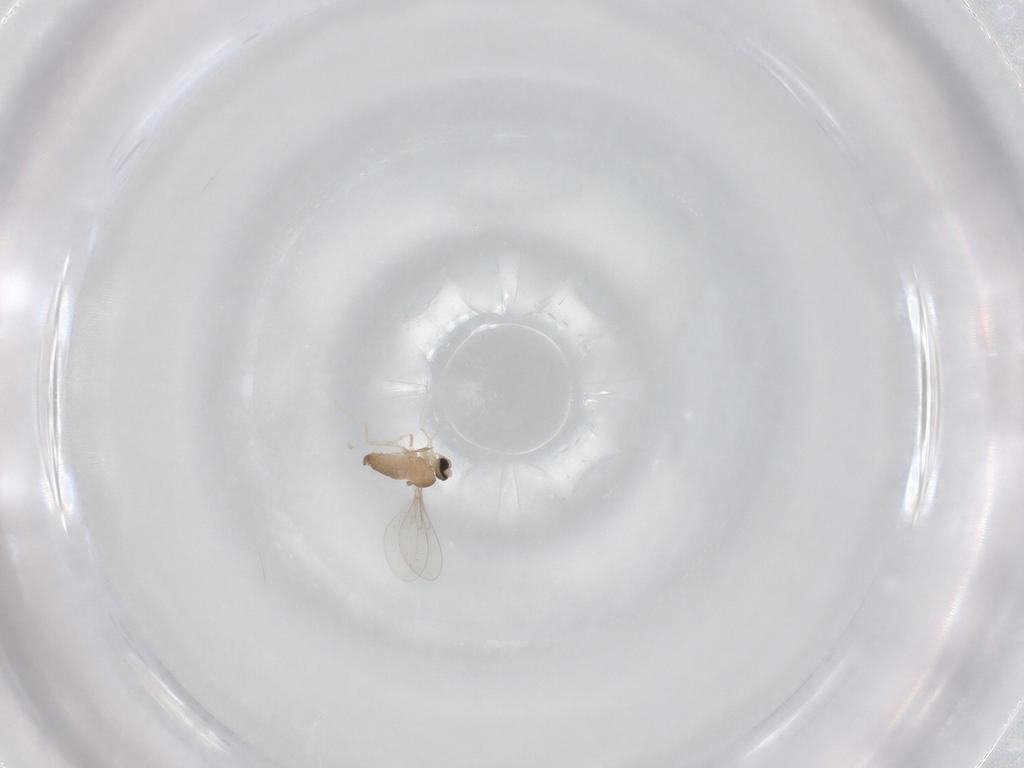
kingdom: Animalia
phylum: Arthropoda
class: Insecta
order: Diptera
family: Cecidomyiidae
